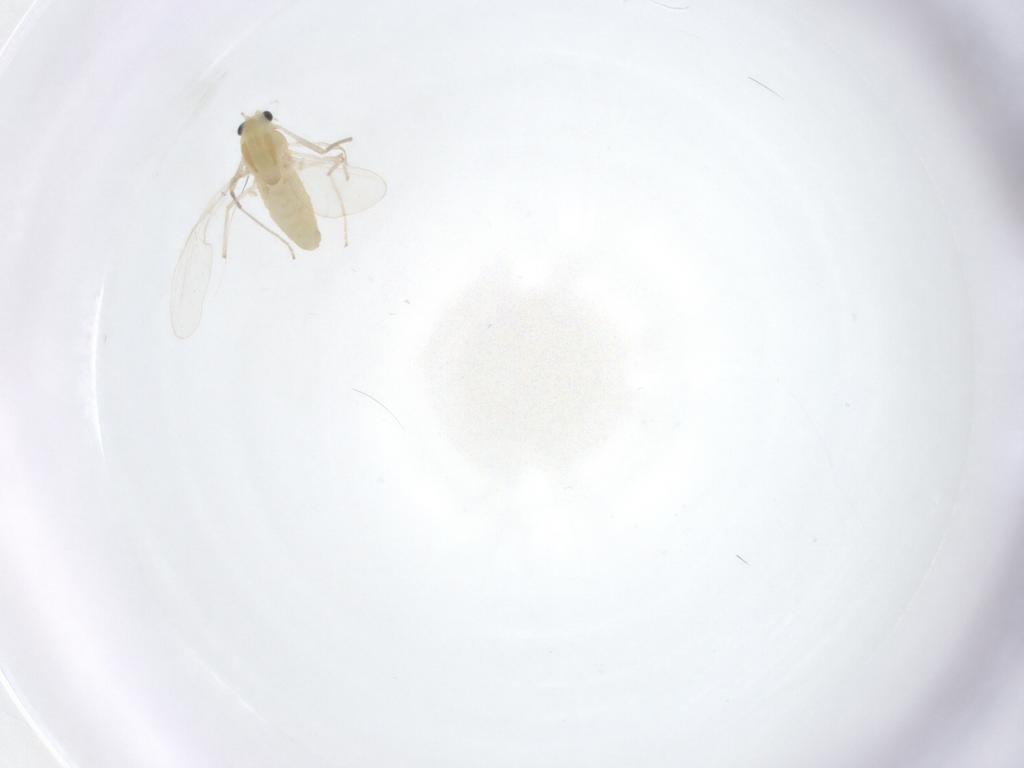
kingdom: Animalia
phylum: Arthropoda
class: Insecta
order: Diptera
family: Chironomidae
